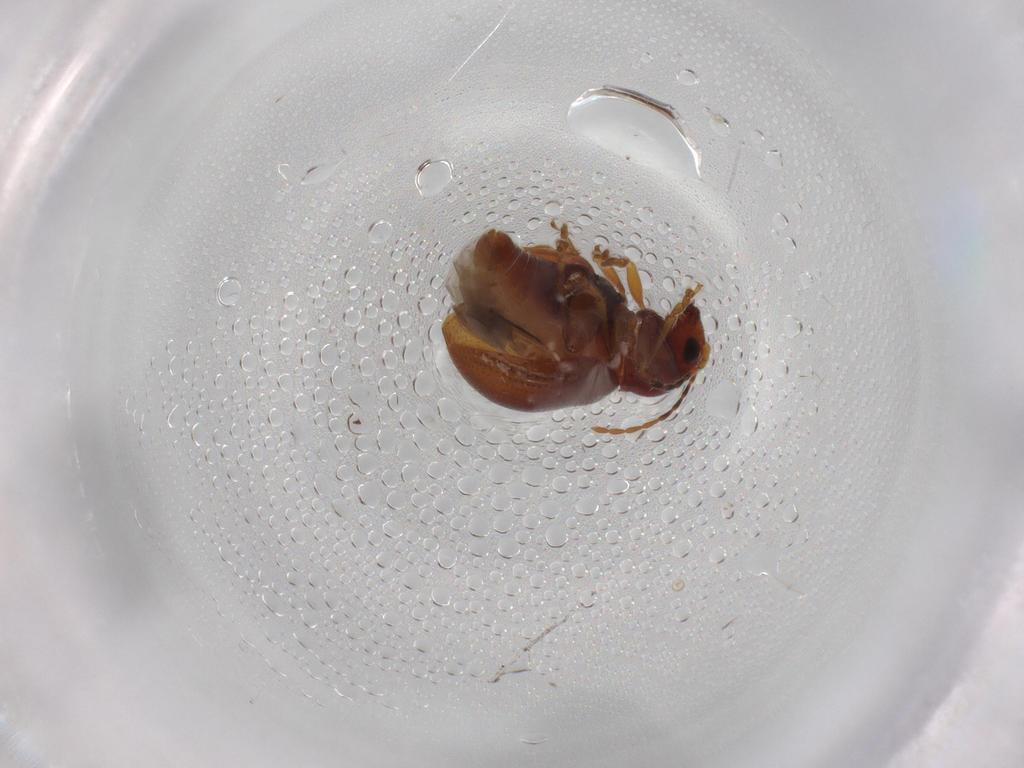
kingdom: Animalia
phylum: Arthropoda
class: Insecta
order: Coleoptera
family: Chrysomelidae
